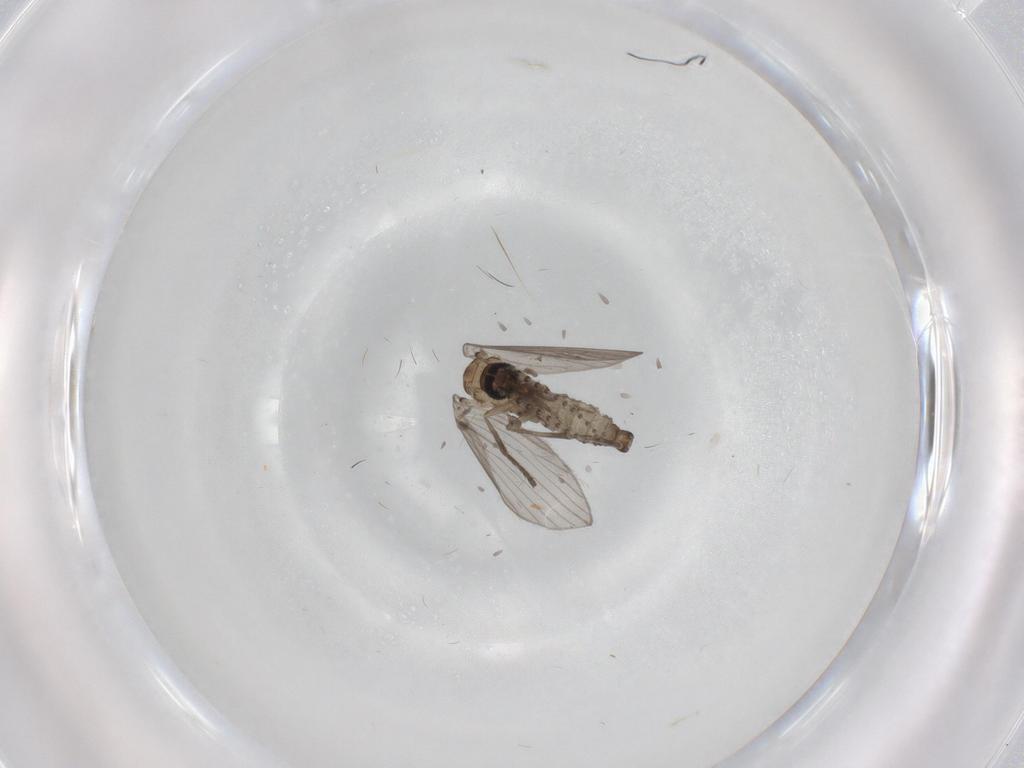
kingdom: Animalia
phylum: Arthropoda
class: Insecta
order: Diptera
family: Psychodidae
